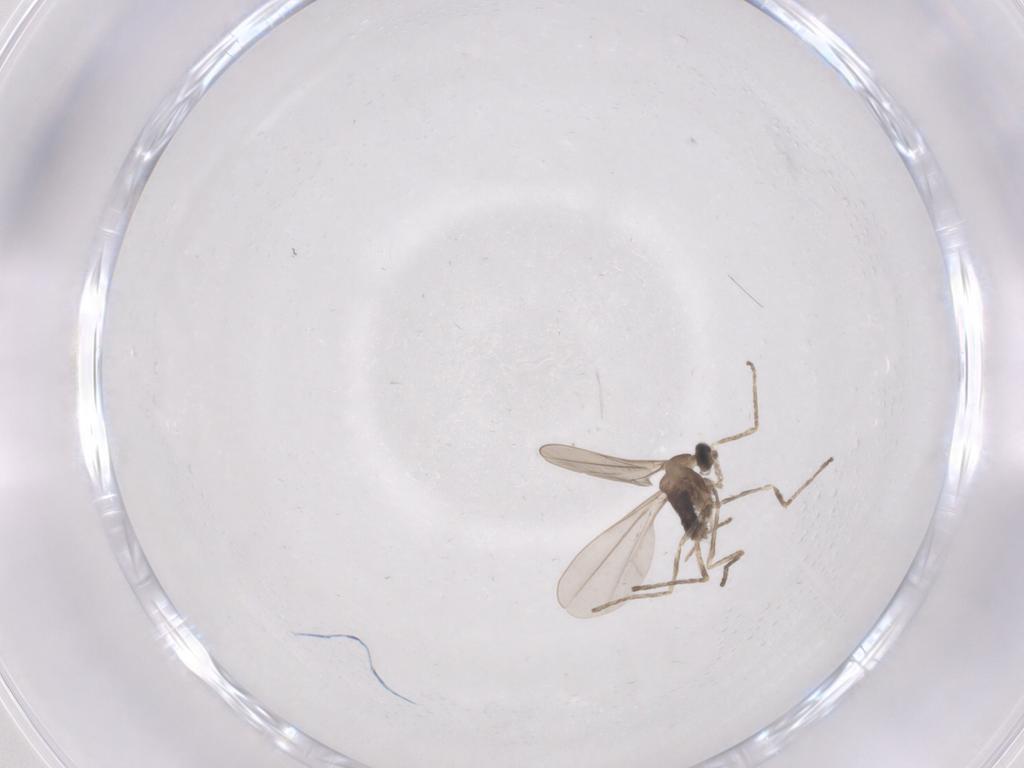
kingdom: Animalia
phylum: Arthropoda
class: Insecta
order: Diptera
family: Cecidomyiidae
